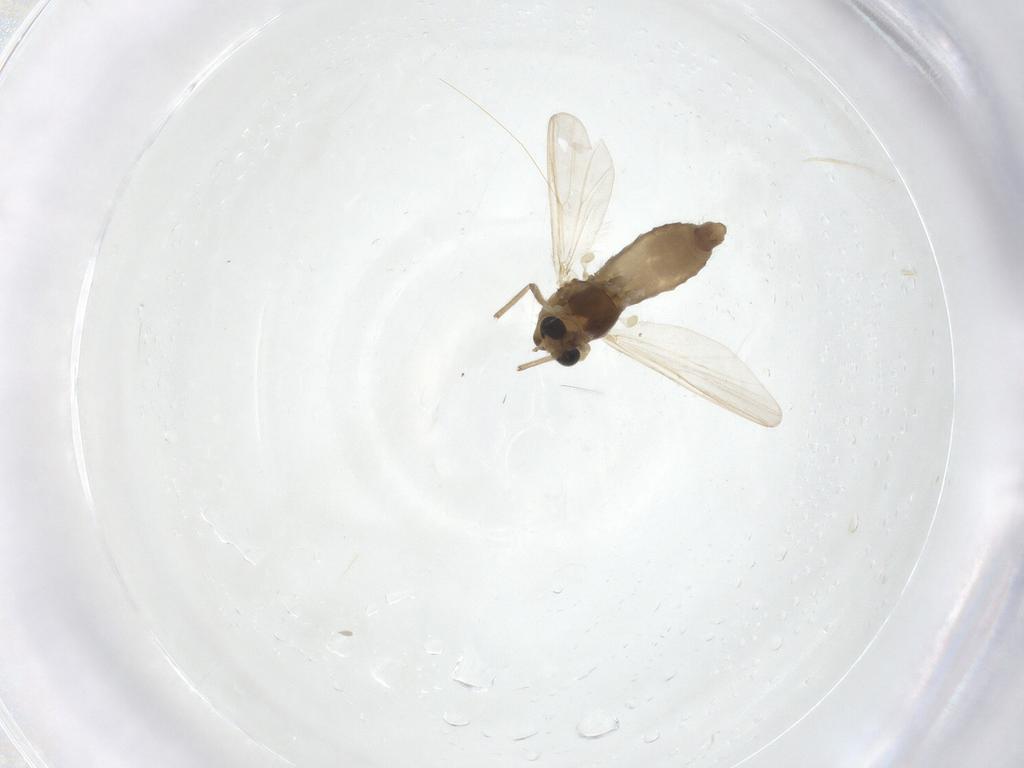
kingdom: Animalia
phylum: Arthropoda
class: Insecta
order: Diptera
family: Chironomidae
